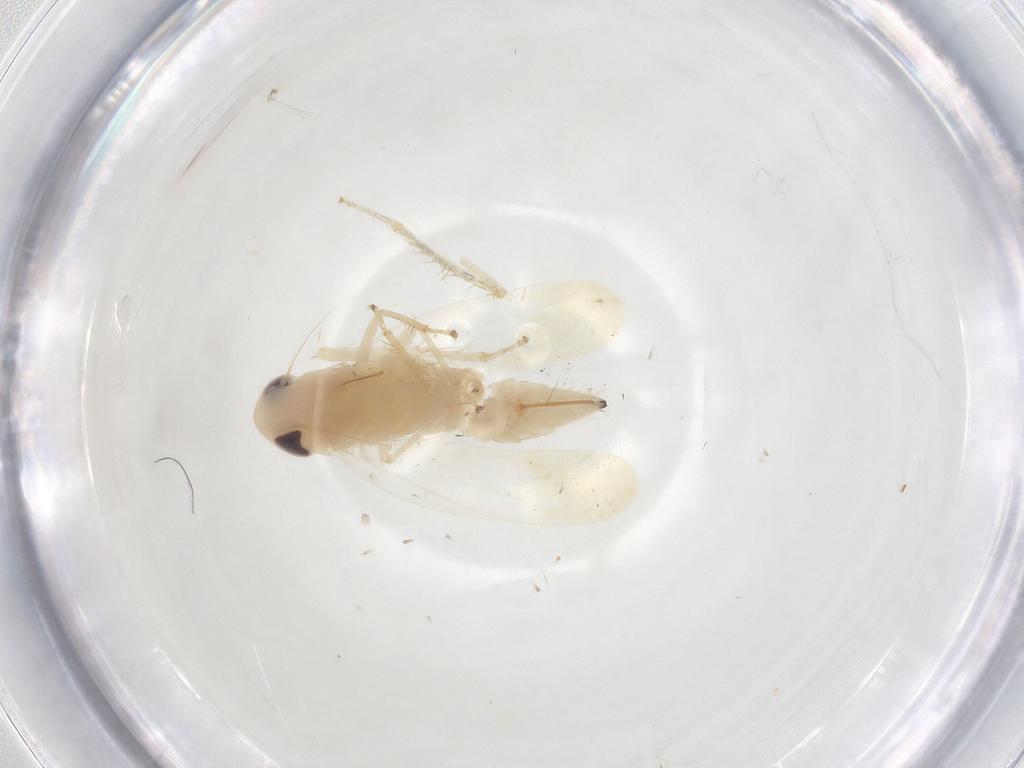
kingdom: Animalia
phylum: Arthropoda
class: Insecta
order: Hemiptera
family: Cicadellidae
